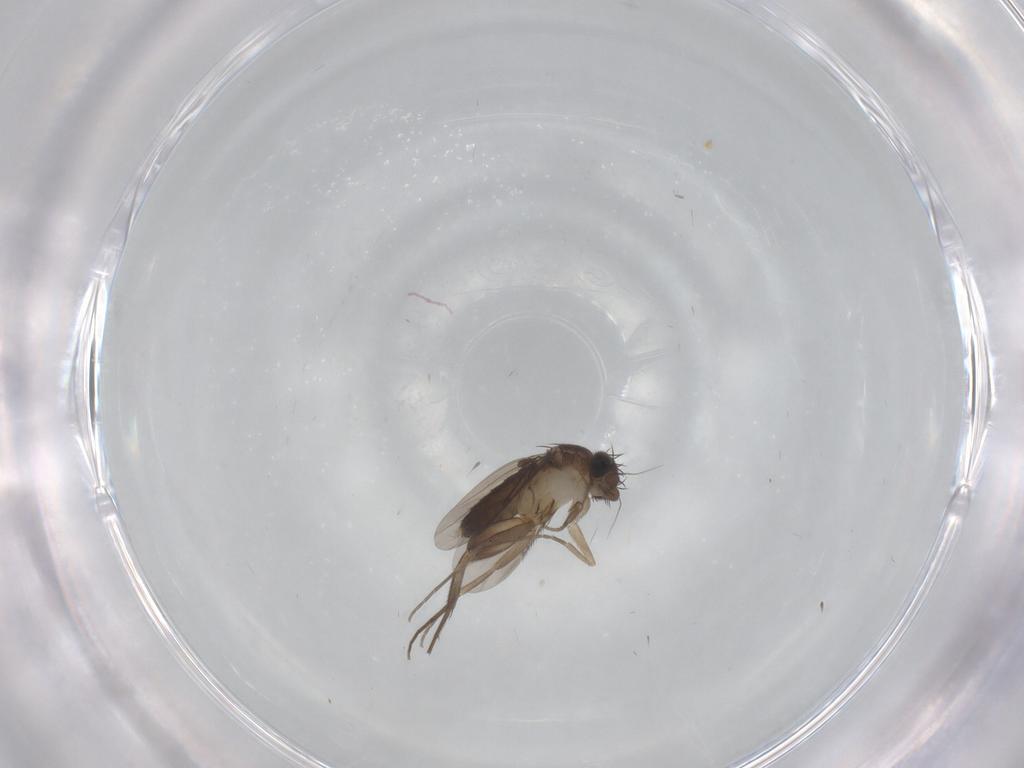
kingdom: Animalia
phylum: Arthropoda
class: Insecta
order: Diptera
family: Phoridae
